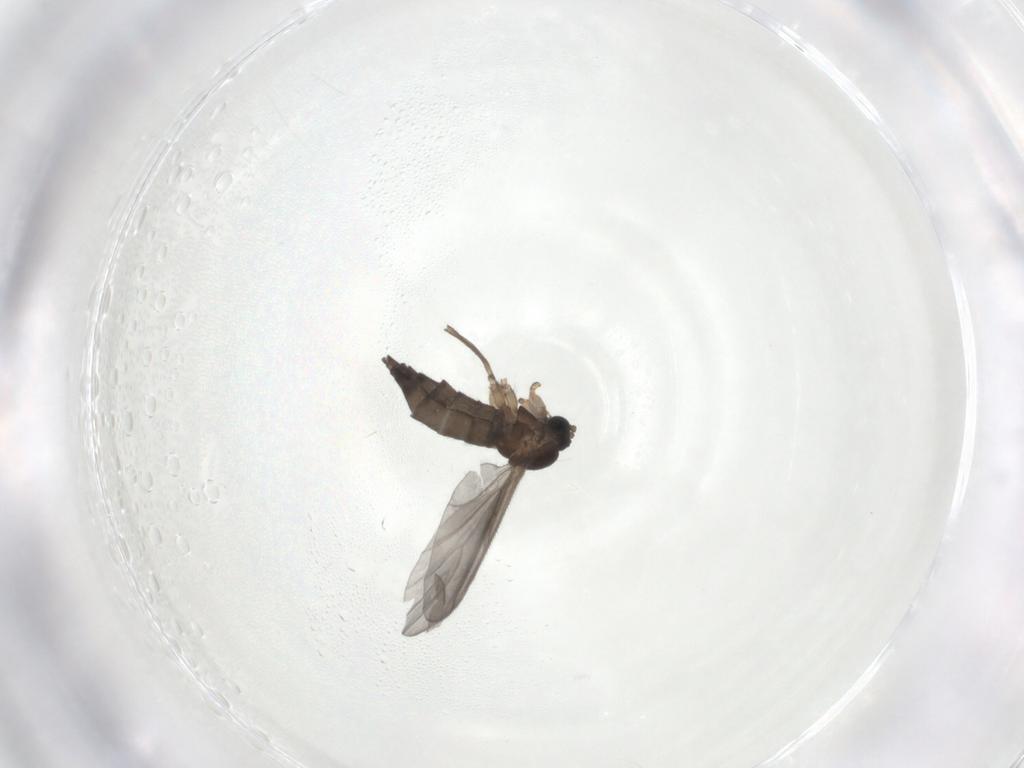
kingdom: Animalia
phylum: Arthropoda
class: Insecta
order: Diptera
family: Sciaridae
